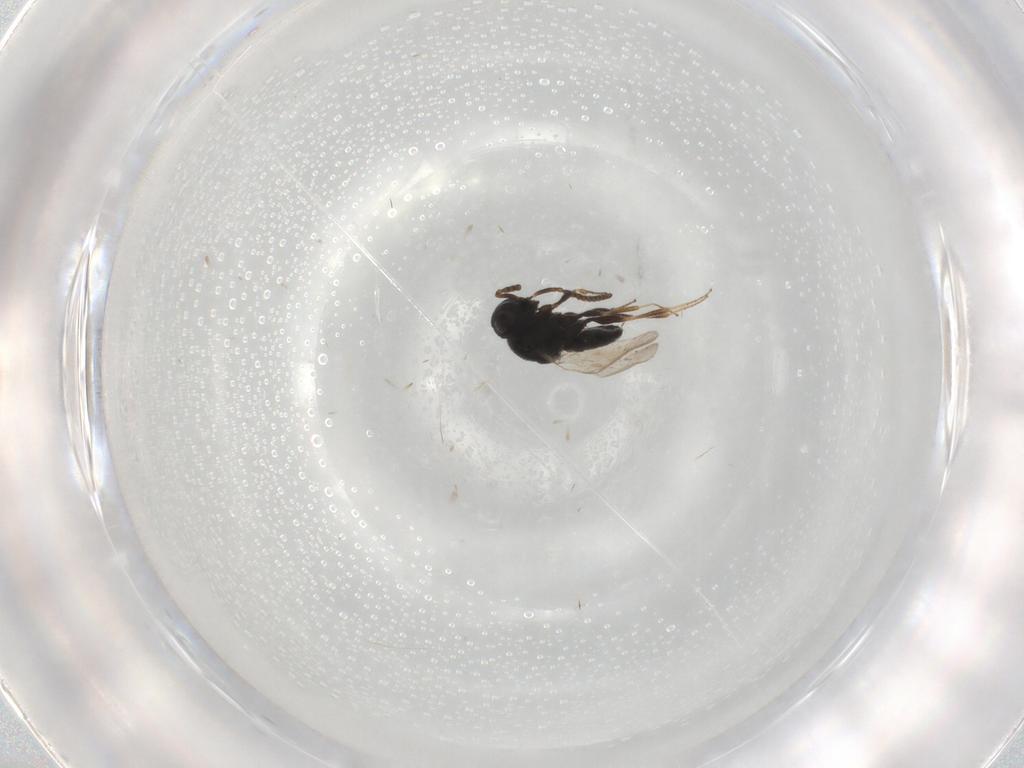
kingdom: Animalia
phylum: Arthropoda
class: Insecta
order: Hymenoptera
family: Scelionidae
